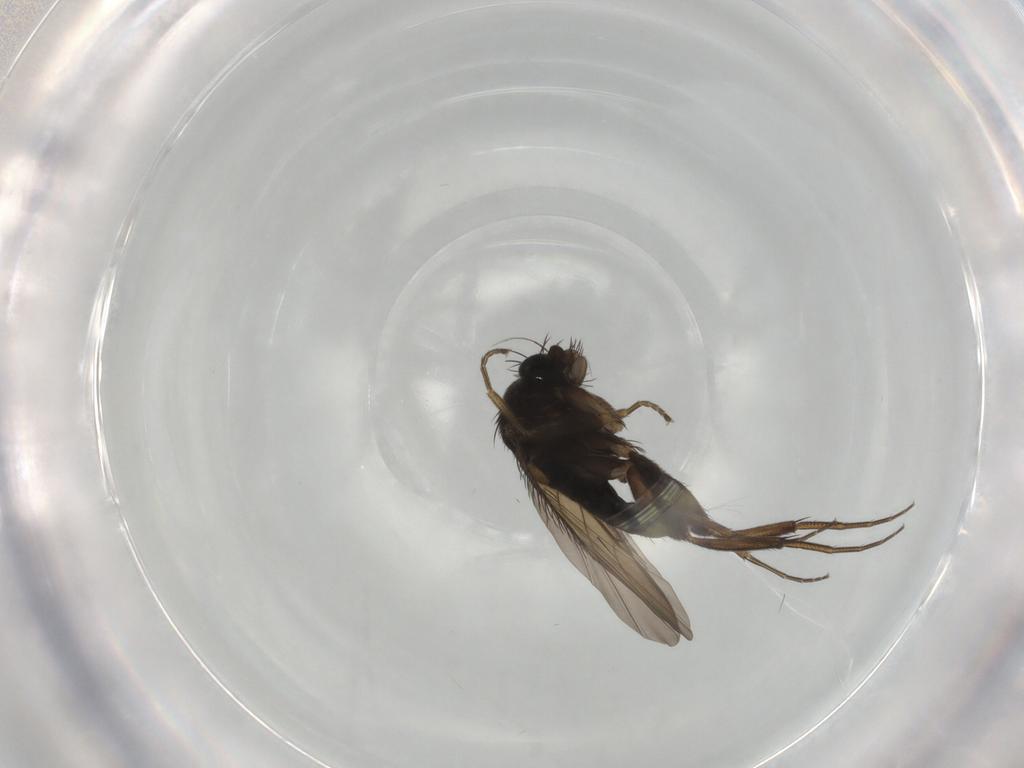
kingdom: Animalia
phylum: Arthropoda
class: Insecta
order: Diptera
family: Phoridae
